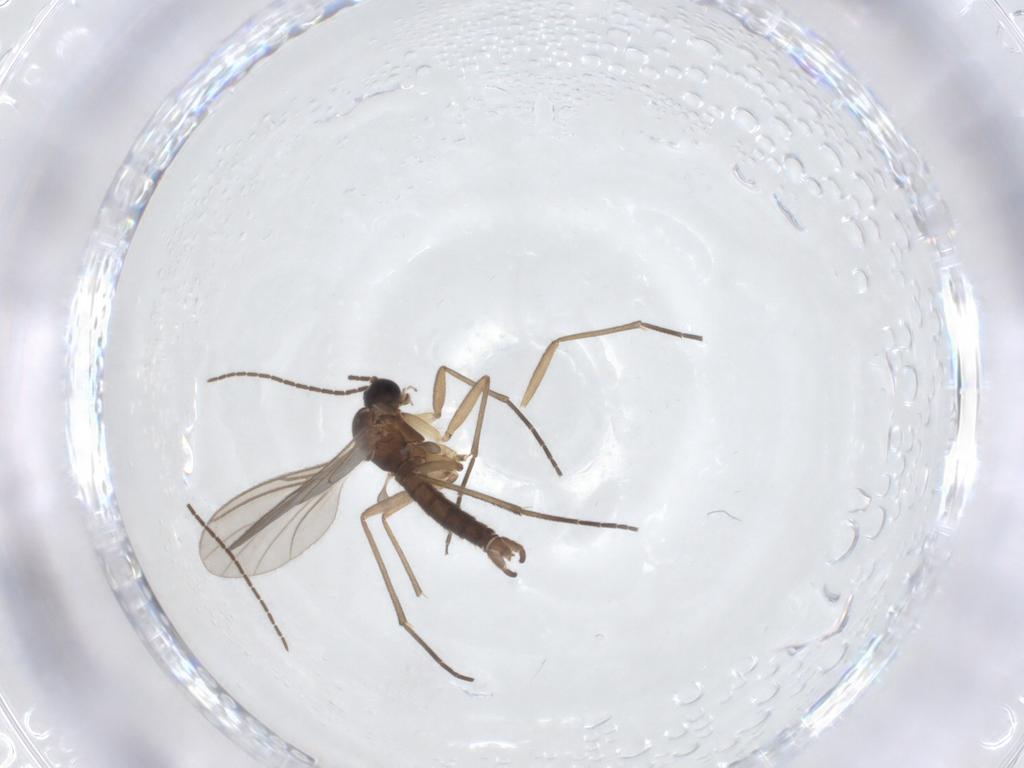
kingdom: Animalia
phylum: Arthropoda
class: Insecta
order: Diptera
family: Sciaridae
